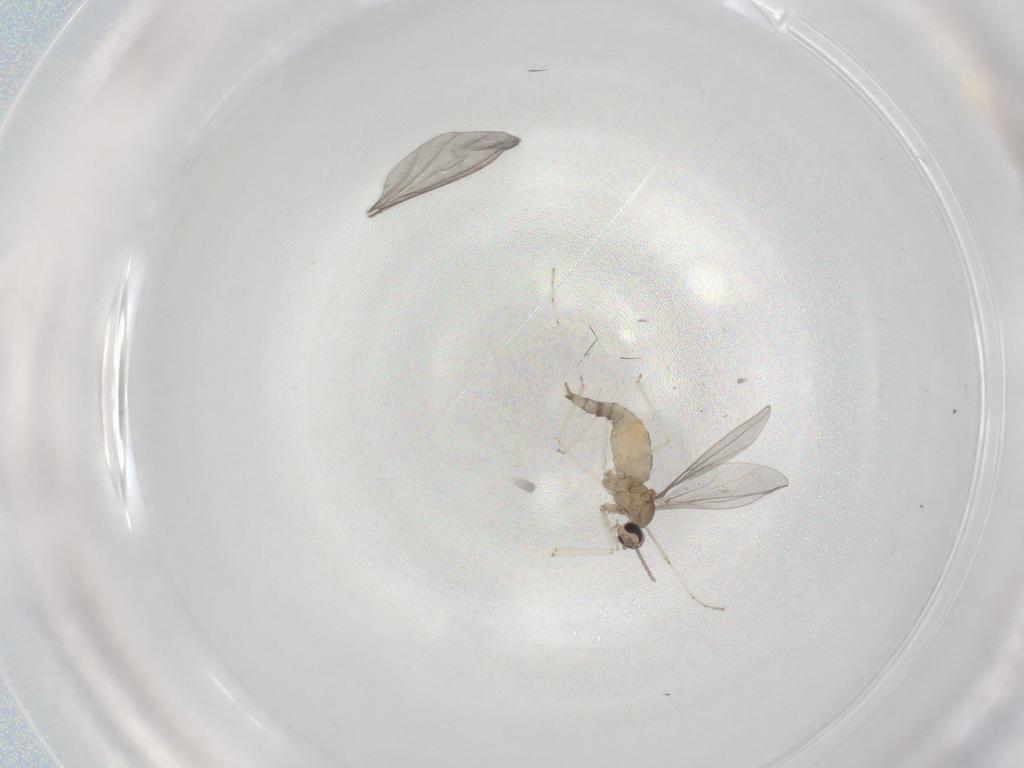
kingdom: Animalia
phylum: Arthropoda
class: Insecta
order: Diptera
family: Cecidomyiidae
